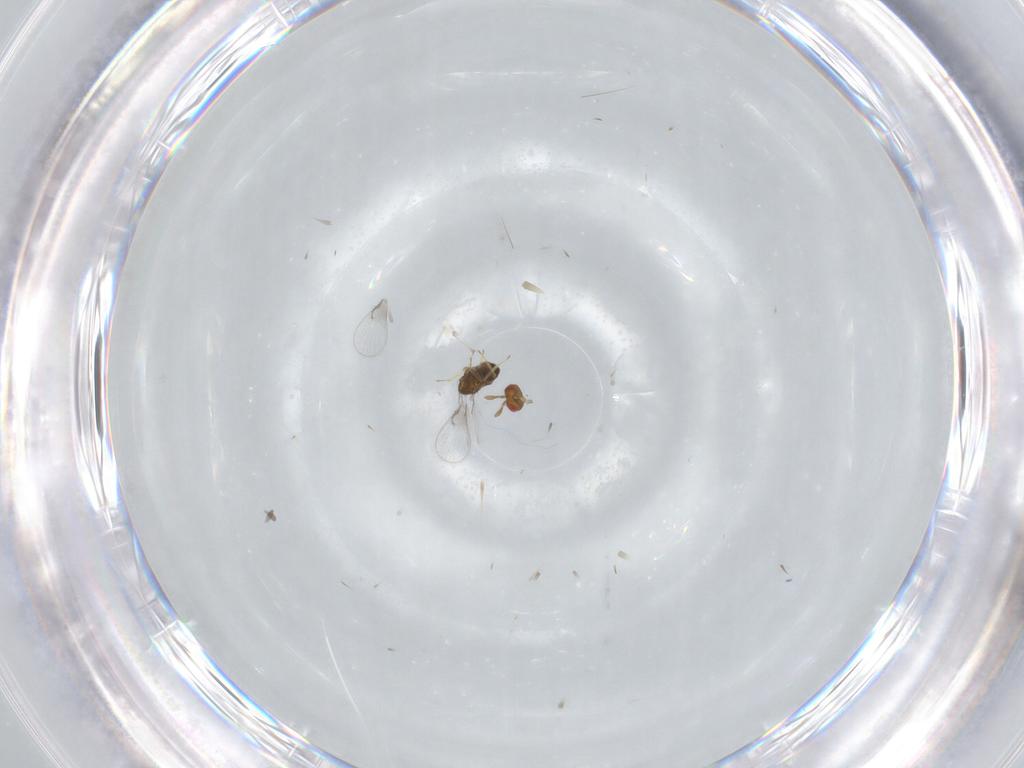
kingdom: Animalia
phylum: Arthropoda
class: Insecta
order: Hymenoptera
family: Trichogrammatidae
